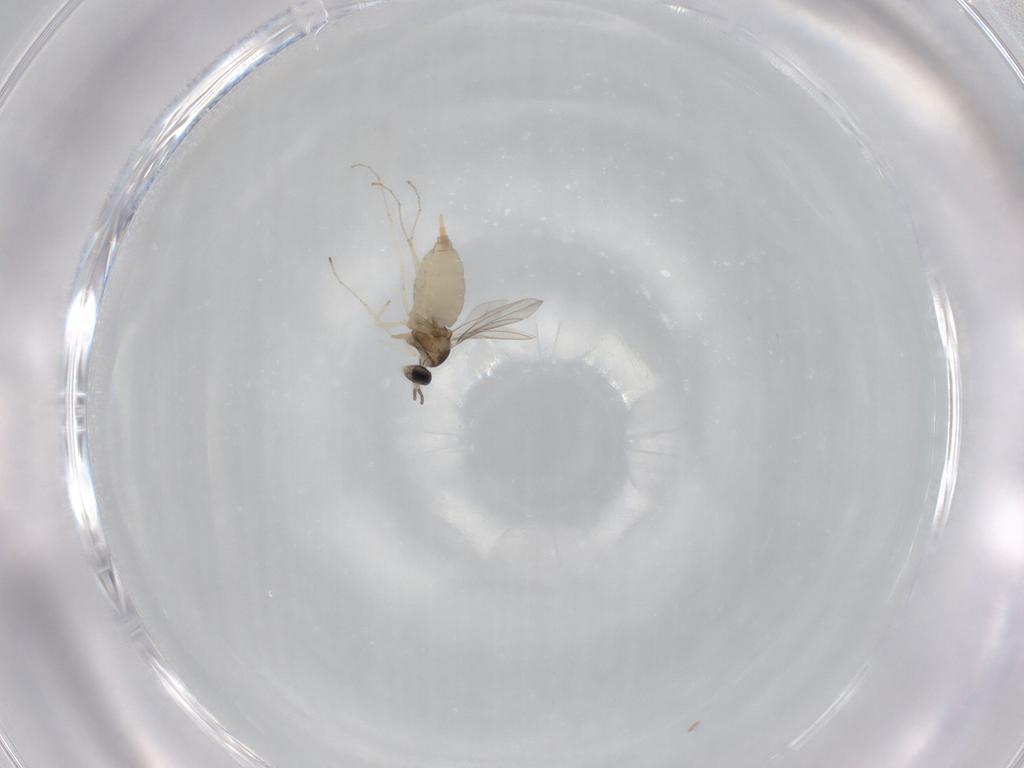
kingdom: Animalia
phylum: Arthropoda
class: Insecta
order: Diptera
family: Cecidomyiidae
